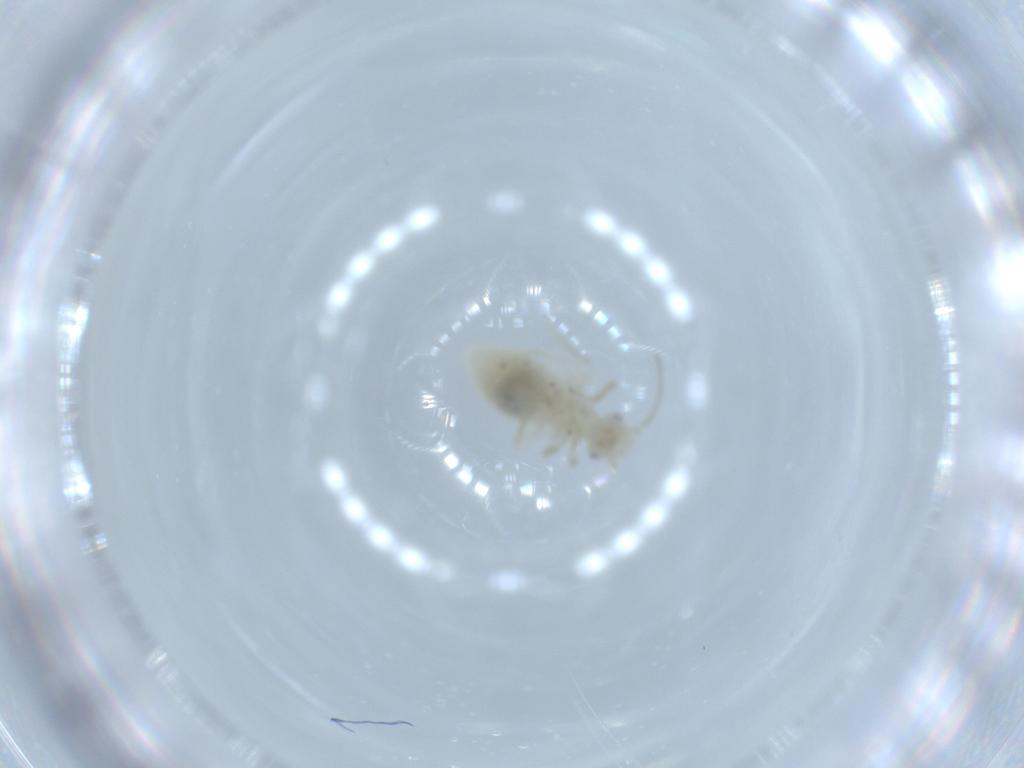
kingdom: Animalia
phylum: Arthropoda
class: Insecta
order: Psocodea
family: Caeciliusidae
